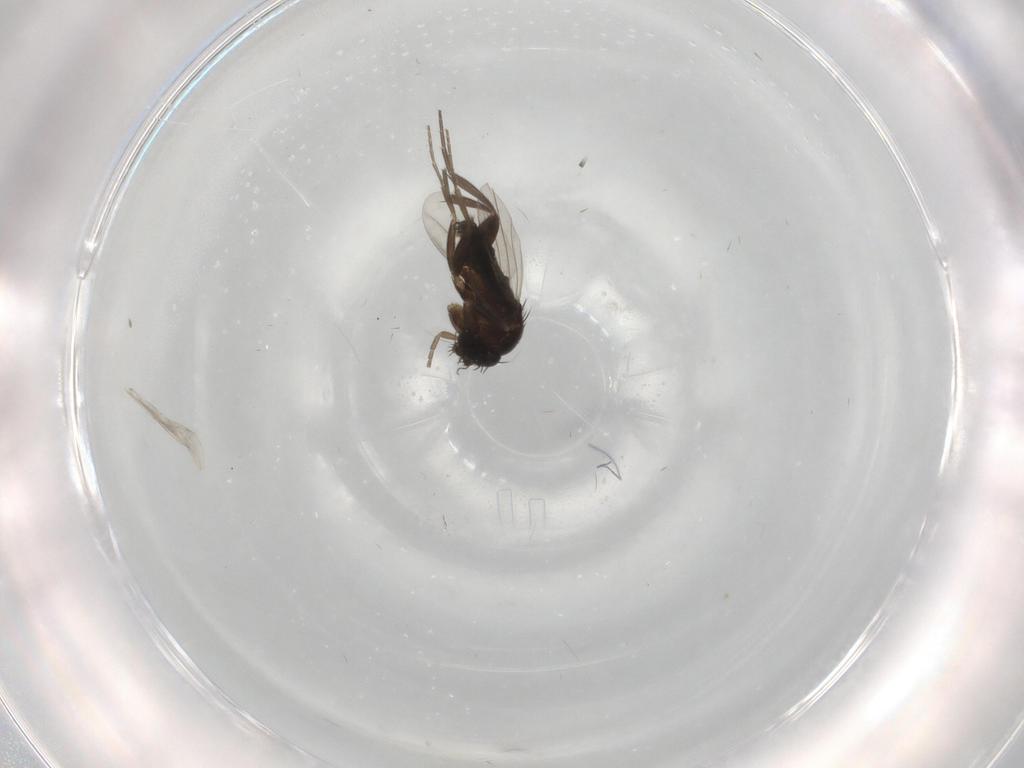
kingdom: Animalia
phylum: Arthropoda
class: Insecta
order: Diptera
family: Phoridae
